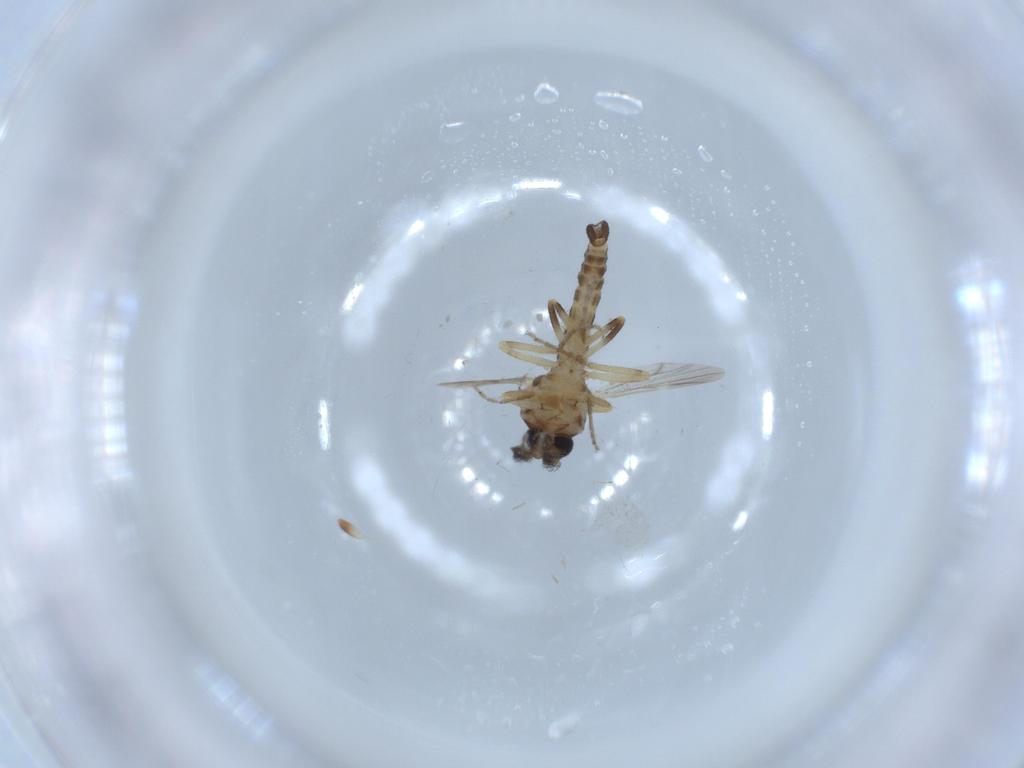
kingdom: Animalia
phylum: Arthropoda
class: Insecta
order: Diptera
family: Ceratopogonidae
